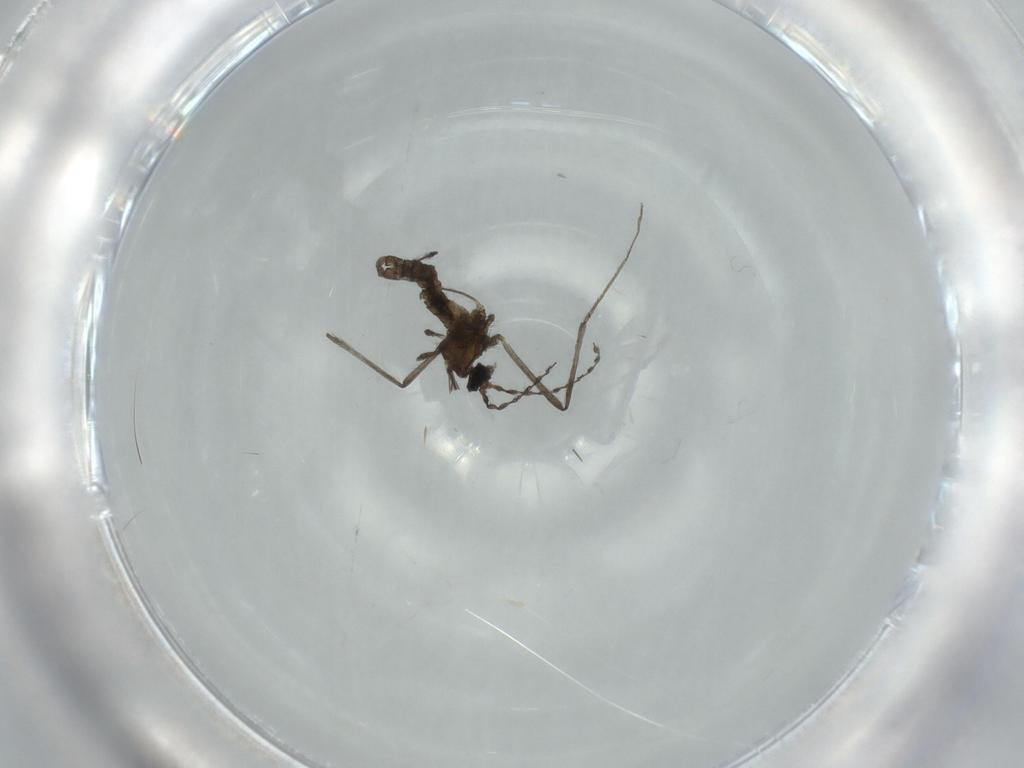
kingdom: Animalia
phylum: Arthropoda
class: Insecta
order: Diptera
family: Cecidomyiidae
